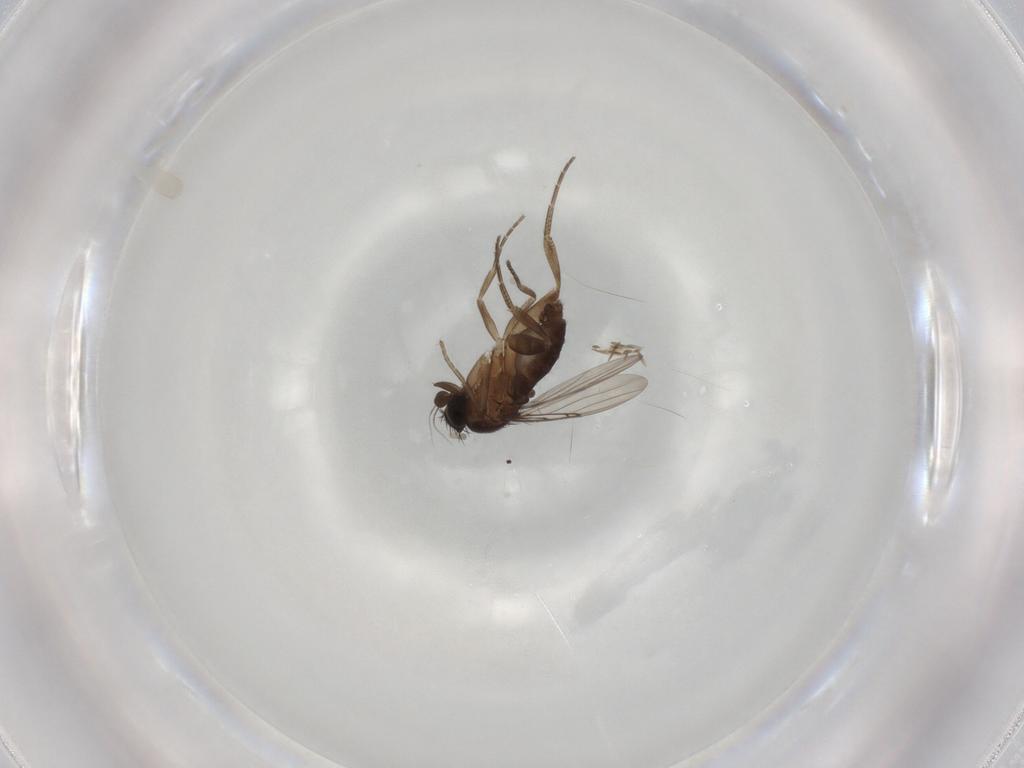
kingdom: Animalia
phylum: Arthropoda
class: Insecta
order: Diptera
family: Phoridae
